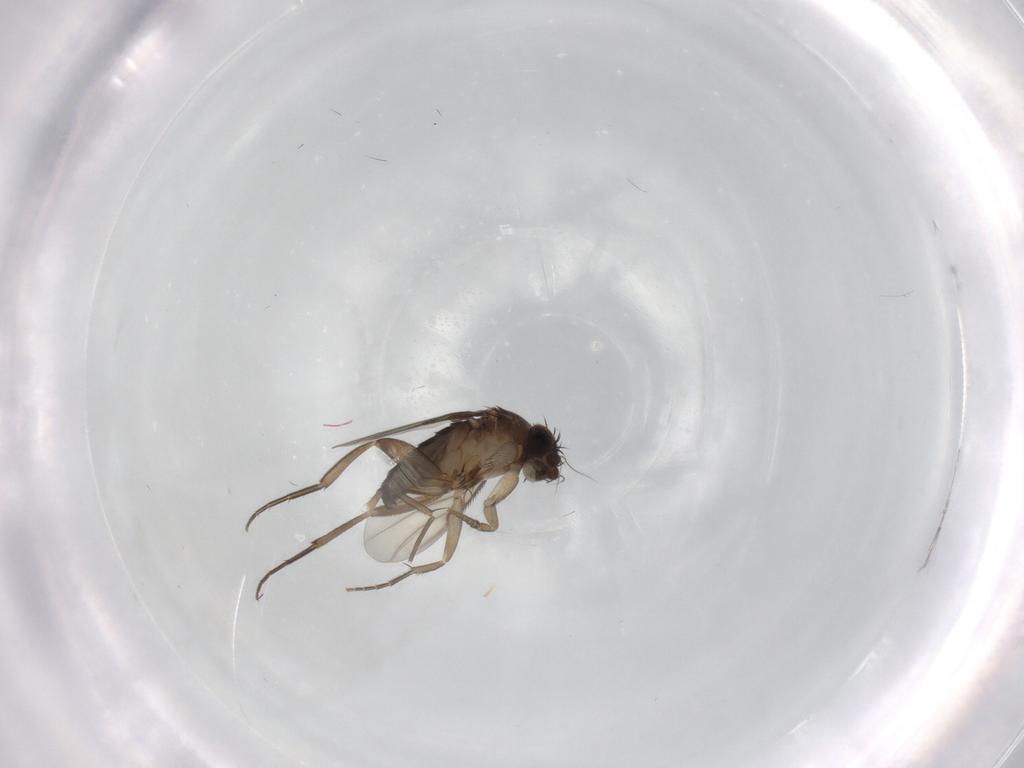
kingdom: Animalia
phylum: Arthropoda
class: Insecta
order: Diptera
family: Phoridae
